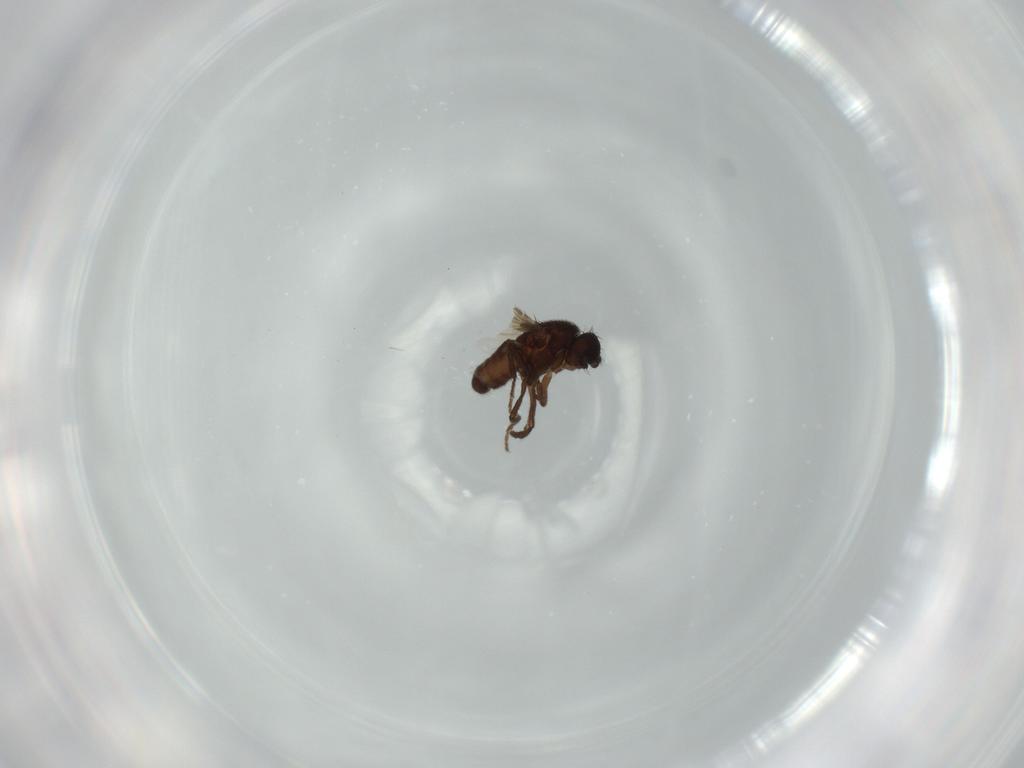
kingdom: Animalia
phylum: Arthropoda
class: Insecta
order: Diptera
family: Sphaeroceridae
